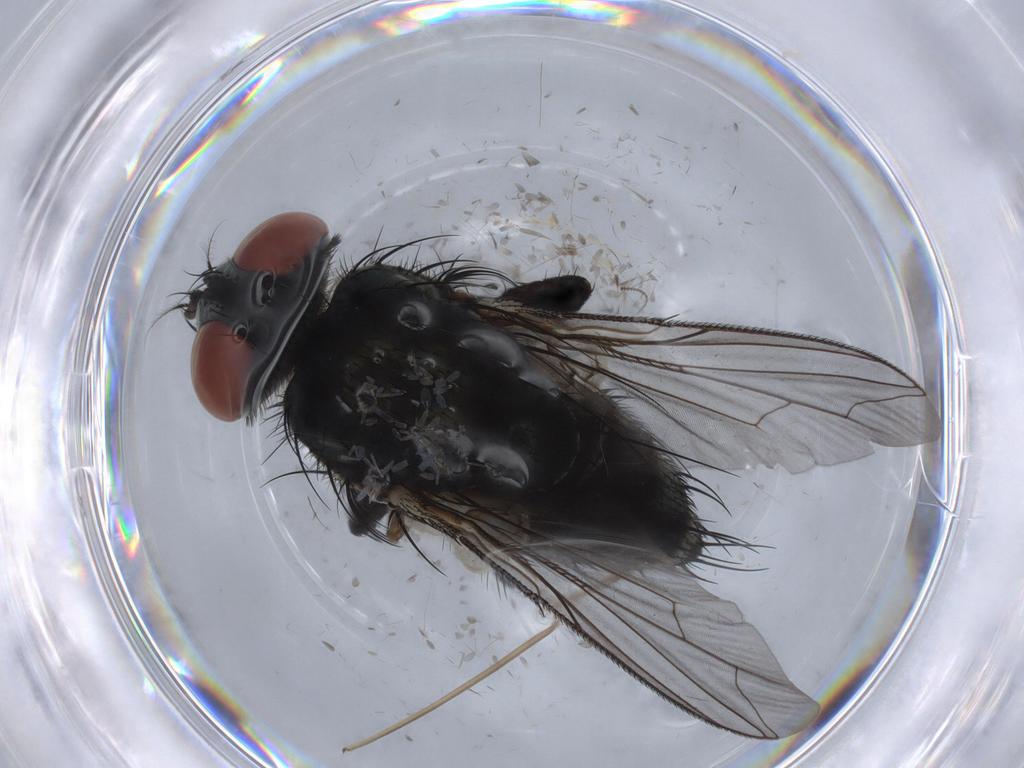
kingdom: Animalia
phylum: Arthropoda
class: Insecta
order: Diptera
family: Sarcophagidae
